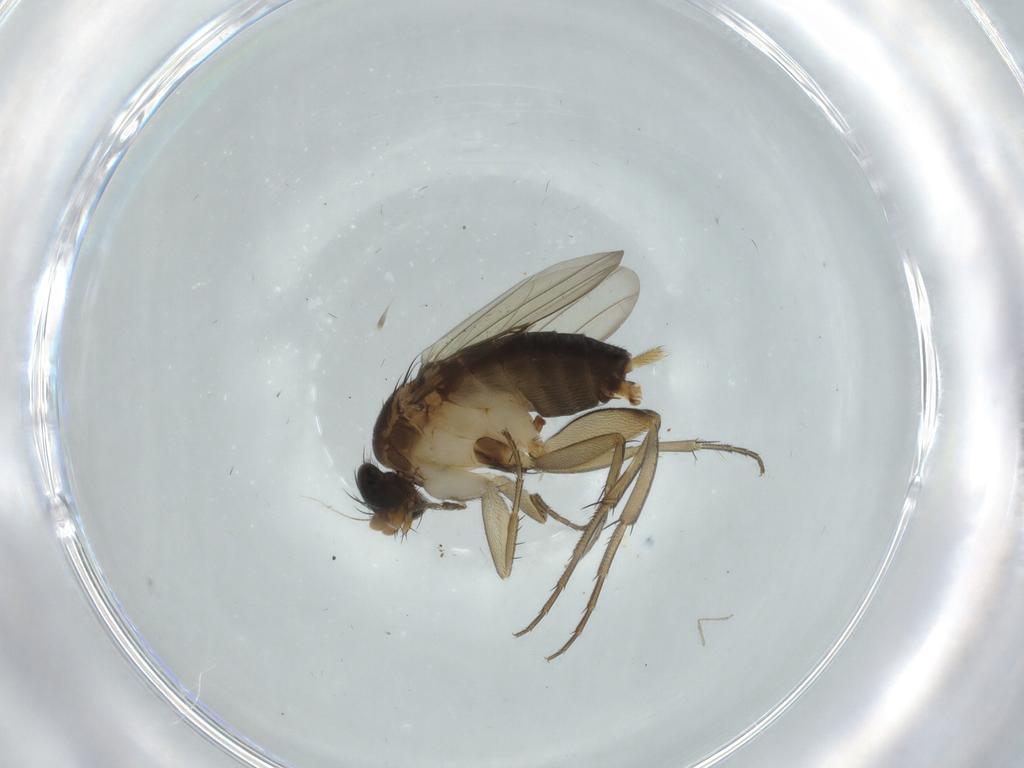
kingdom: Animalia
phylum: Arthropoda
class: Insecta
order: Diptera
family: Phoridae
